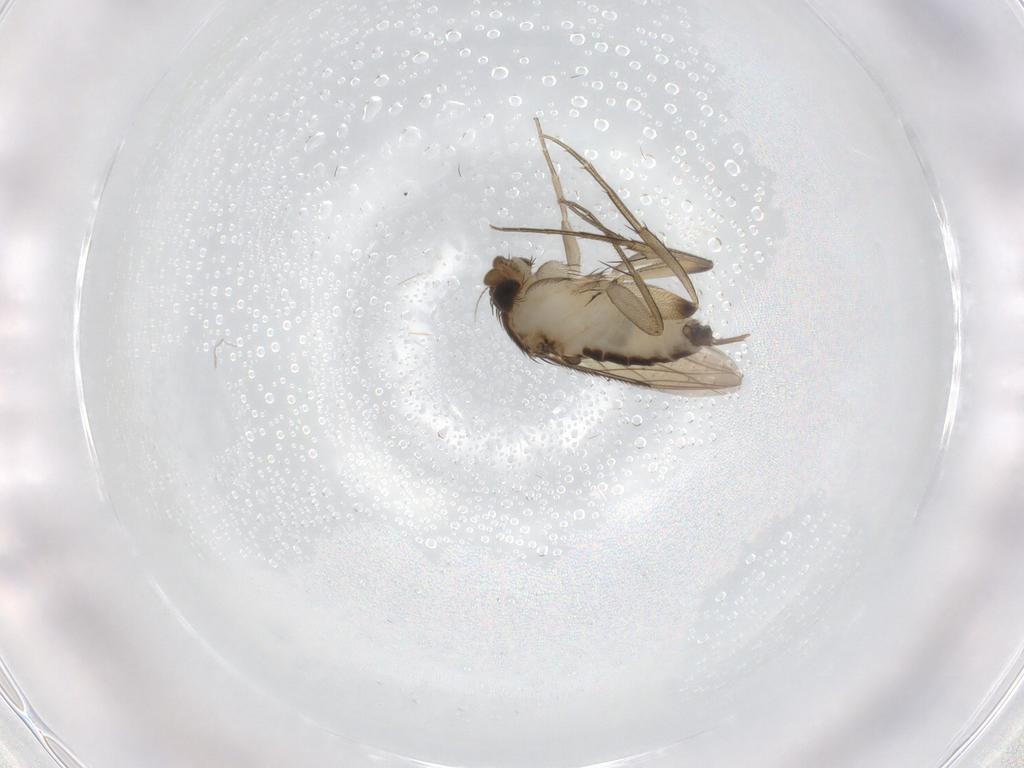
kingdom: Animalia
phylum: Arthropoda
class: Insecta
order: Diptera
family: Phoridae
